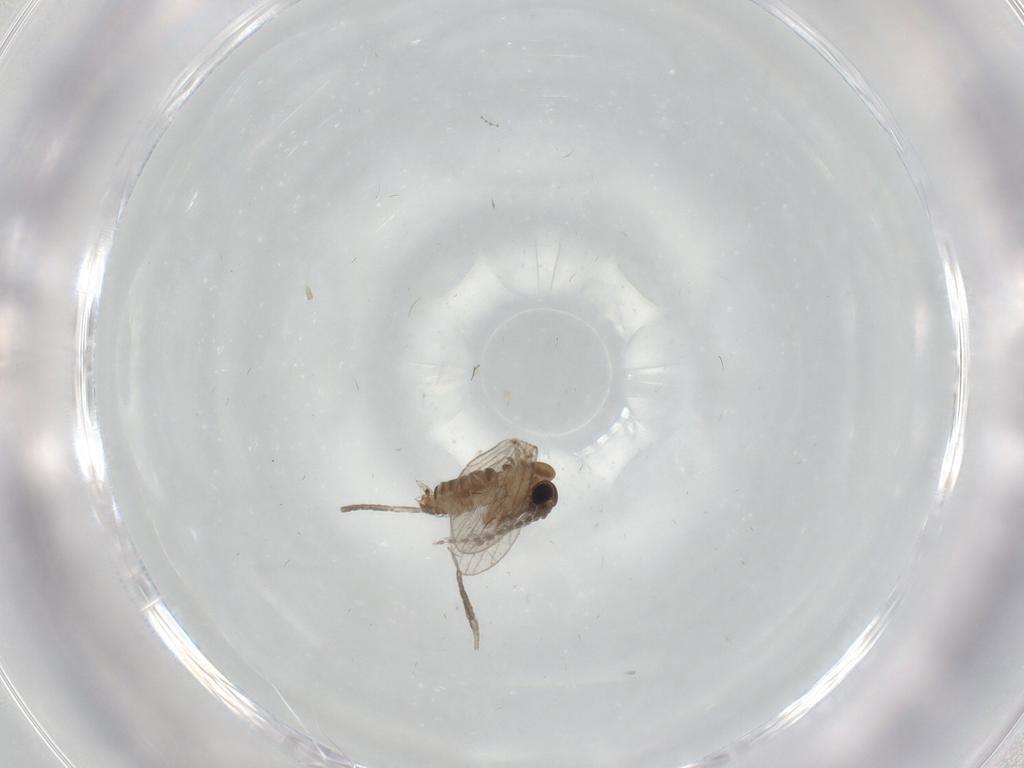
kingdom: Animalia
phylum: Arthropoda
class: Insecta
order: Diptera
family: Psychodidae
